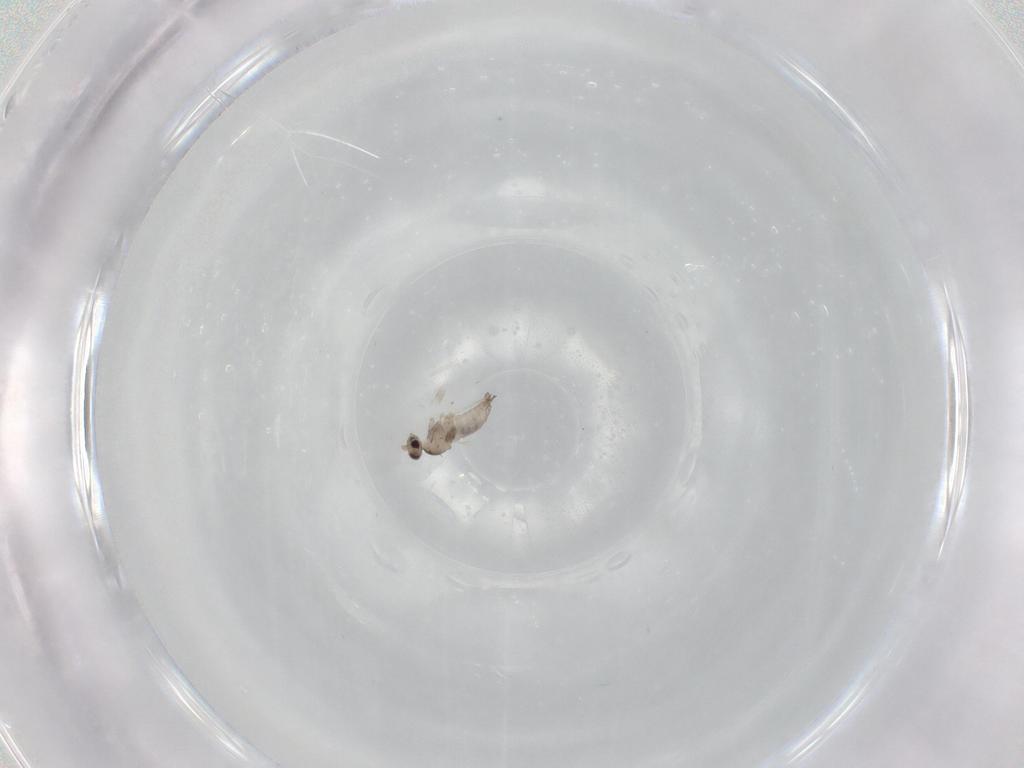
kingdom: Animalia
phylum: Arthropoda
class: Insecta
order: Diptera
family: Cecidomyiidae
